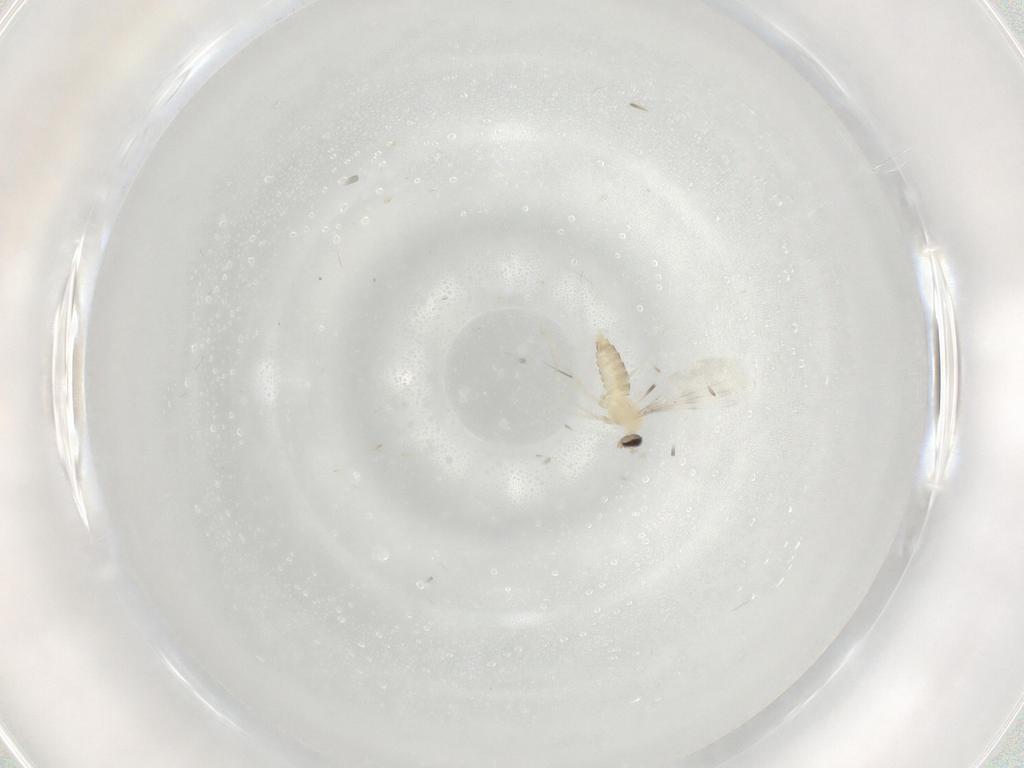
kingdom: Animalia
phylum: Arthropoda
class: Insecta
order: Diptera
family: Cecidomyiidae
